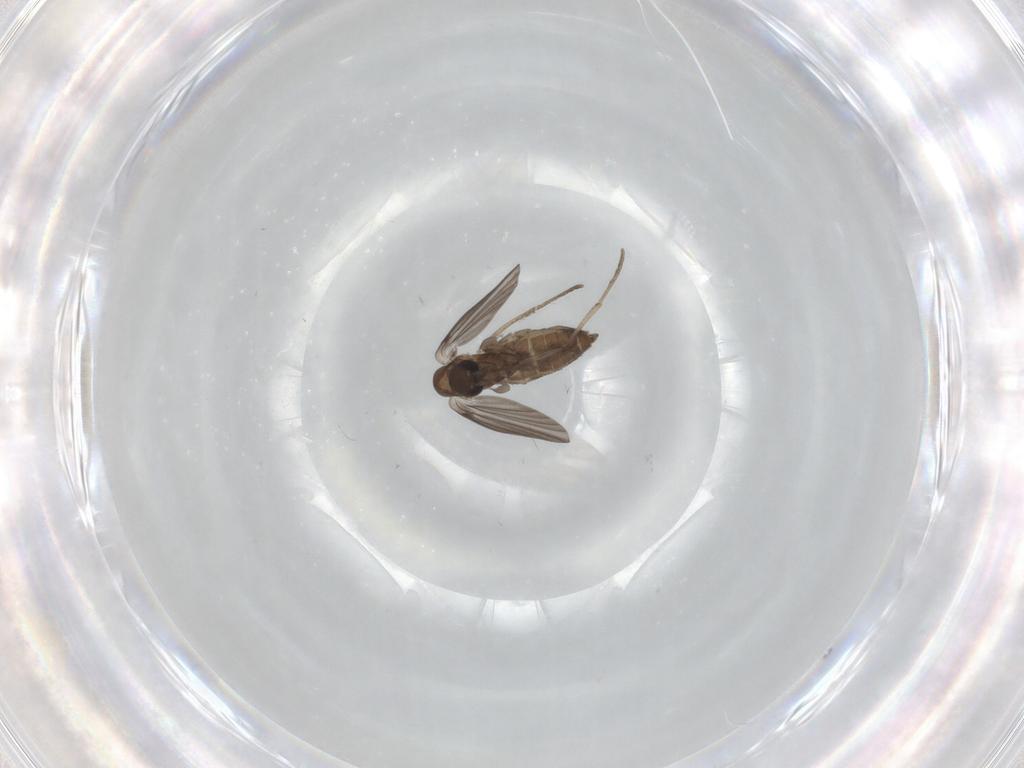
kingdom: Animalia
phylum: Arthropoda
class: Insecta
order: Diptera
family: Psychodidae
